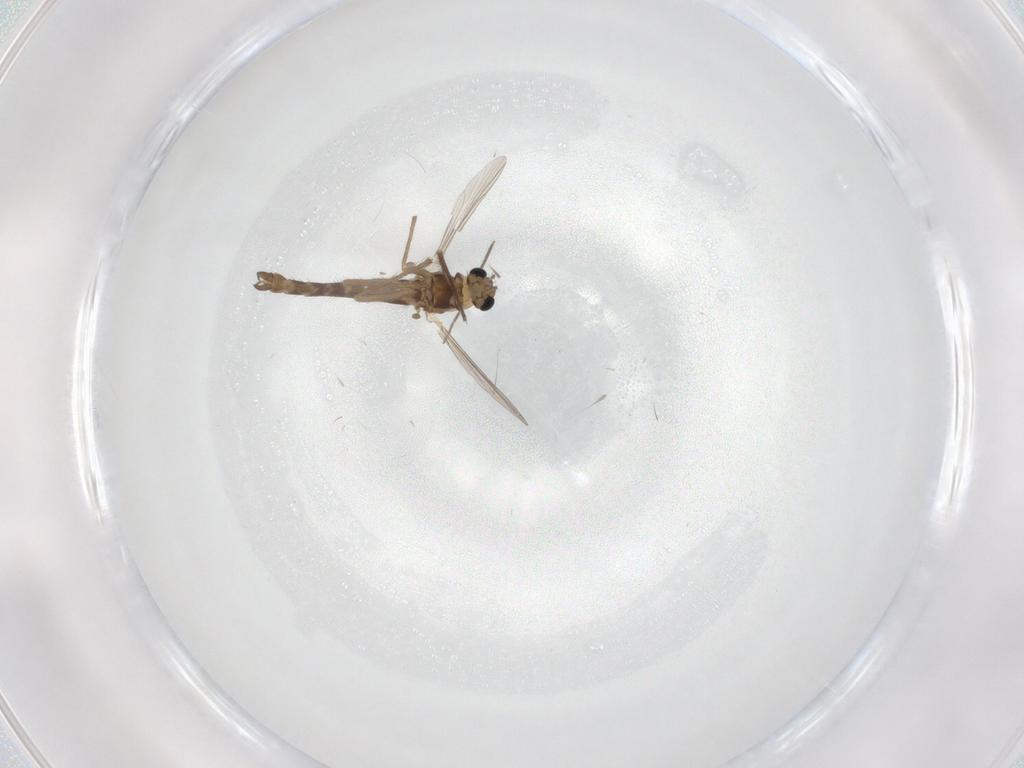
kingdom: Animalia
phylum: Arthropoda
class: Insecta
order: Diptera
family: Chironomidae
